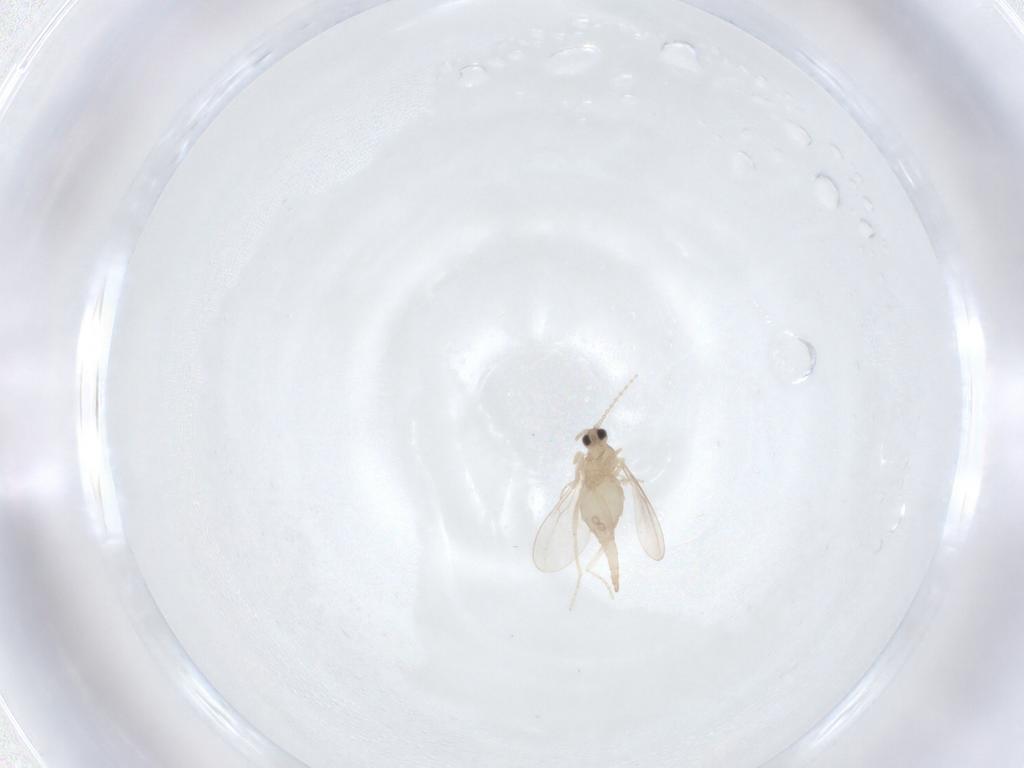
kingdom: Animalia
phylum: Arthropoda
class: Insecta
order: Diptera
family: Cecidomyiidae
